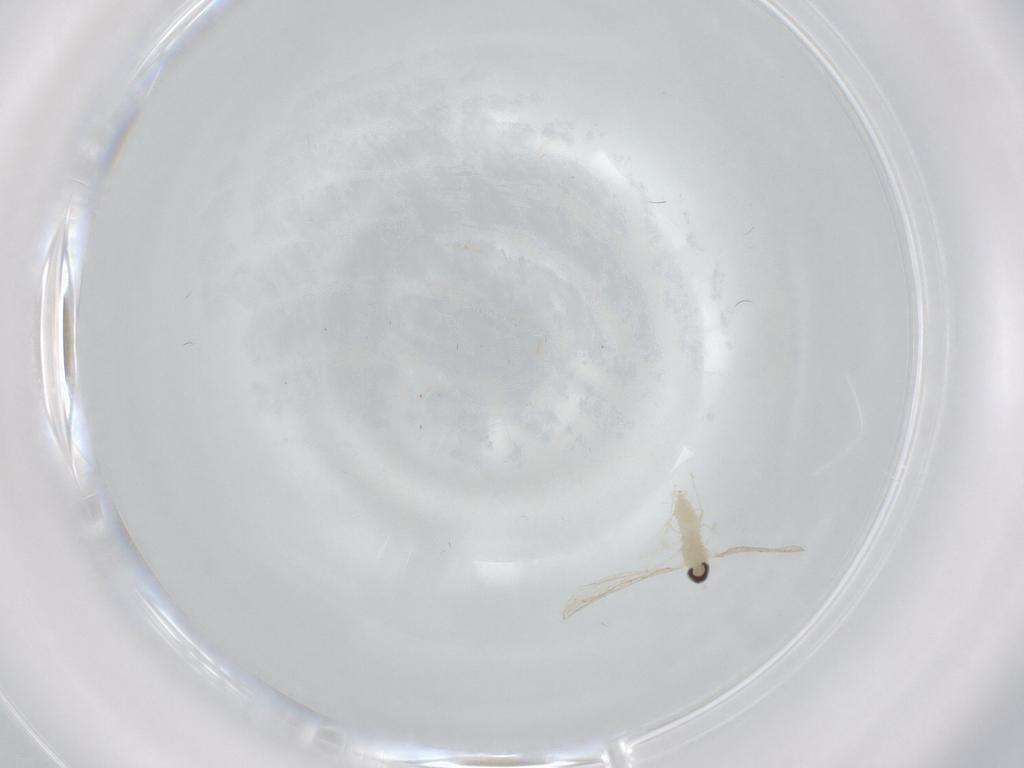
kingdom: Animalia
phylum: Arthropoda
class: Insecta
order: Diptera
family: Cecidomyiidae
